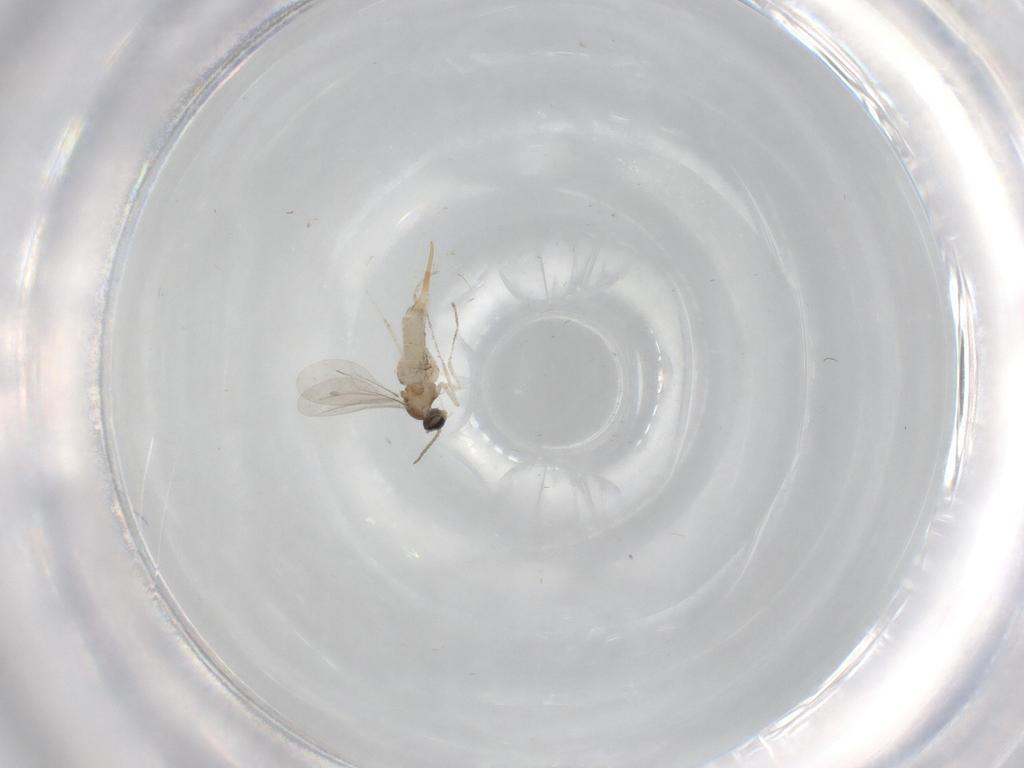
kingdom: Animalia
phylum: Arthropoda
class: Insecta
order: Diptera
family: Cecidomyiidae
